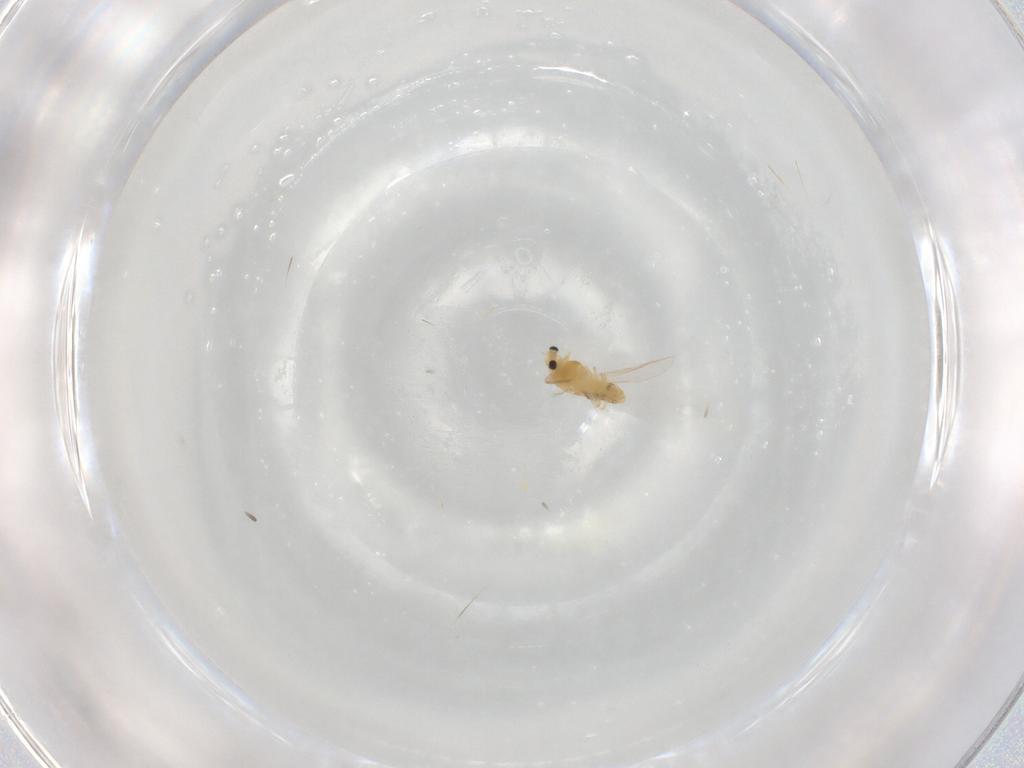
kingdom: Animalia
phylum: Arthropoda
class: Insecta
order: Diptera
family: Chironomidae
